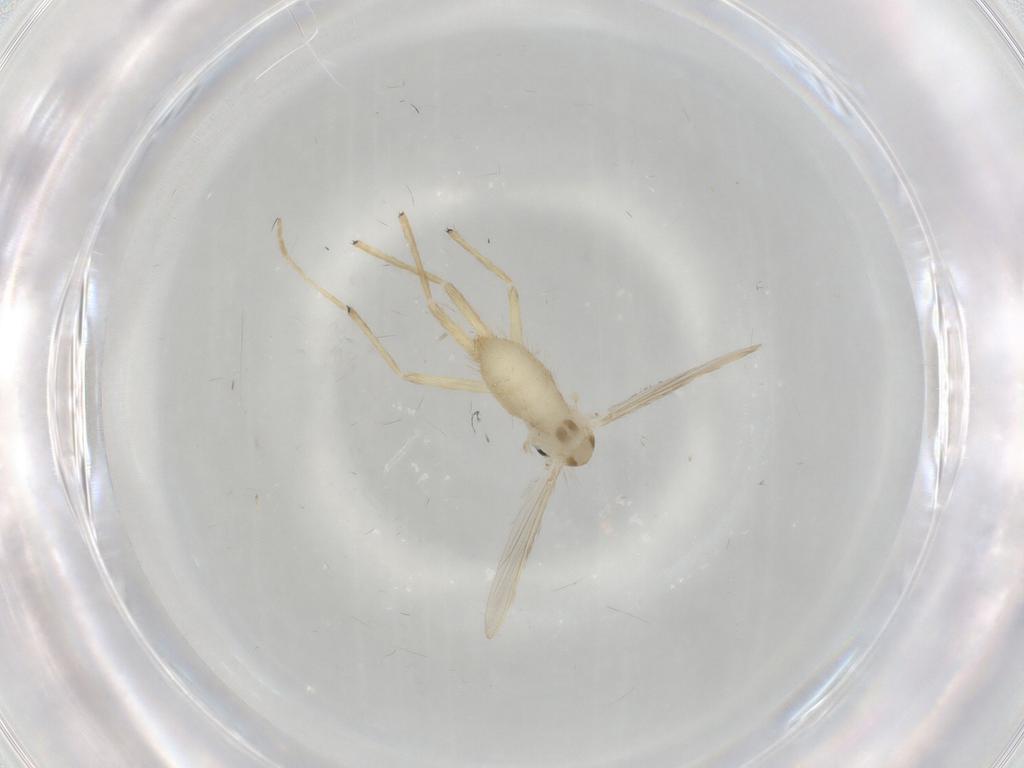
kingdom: Animalia
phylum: Arthropoda
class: Insecta
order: Diptera
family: Chironomidae
